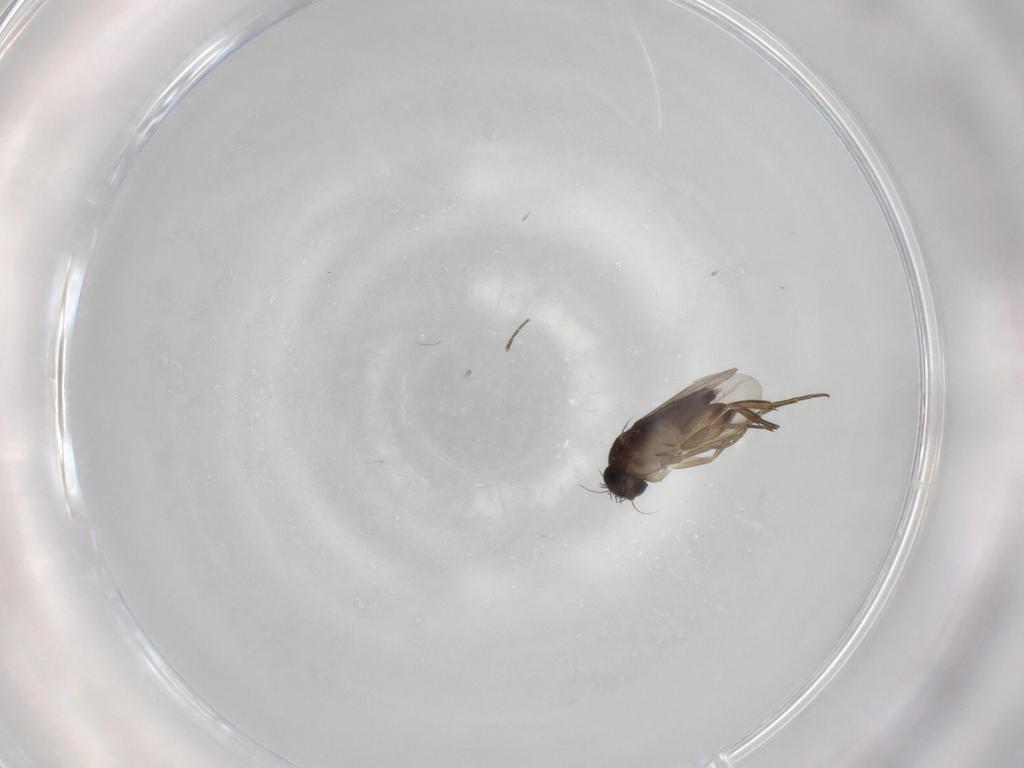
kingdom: Animalia
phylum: Arthropoda
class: Insecta
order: Diptera
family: Phoridae
